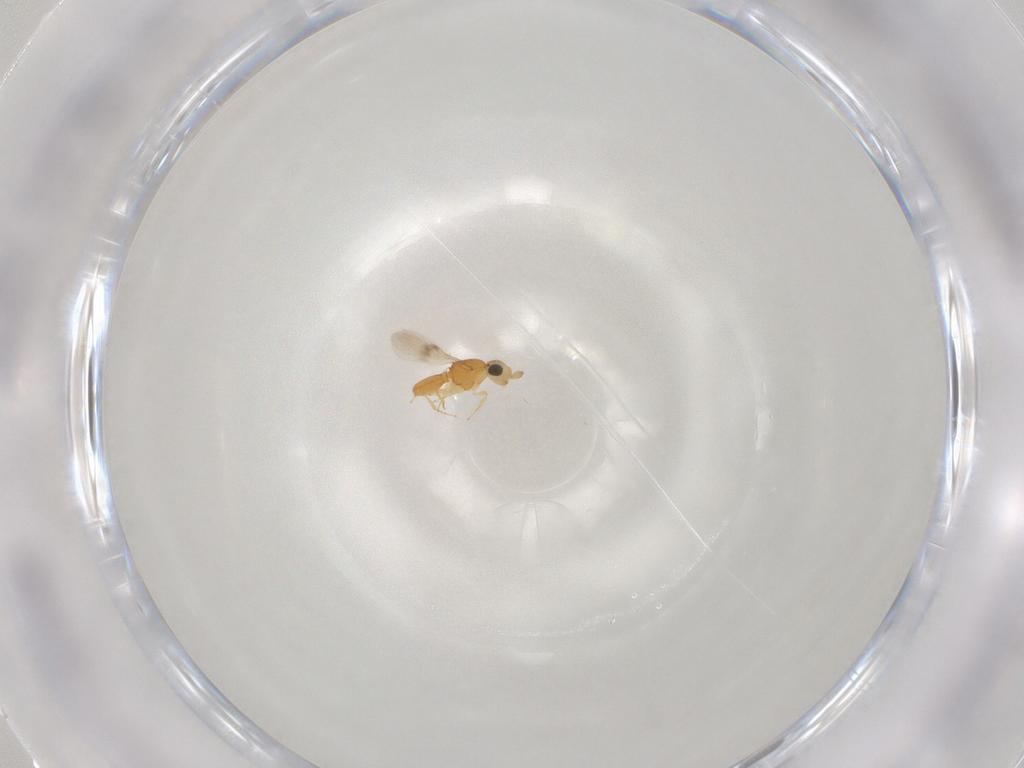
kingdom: Animalia
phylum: Arthropoda
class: Insecta
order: Hymenoptera
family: Scelionidae
